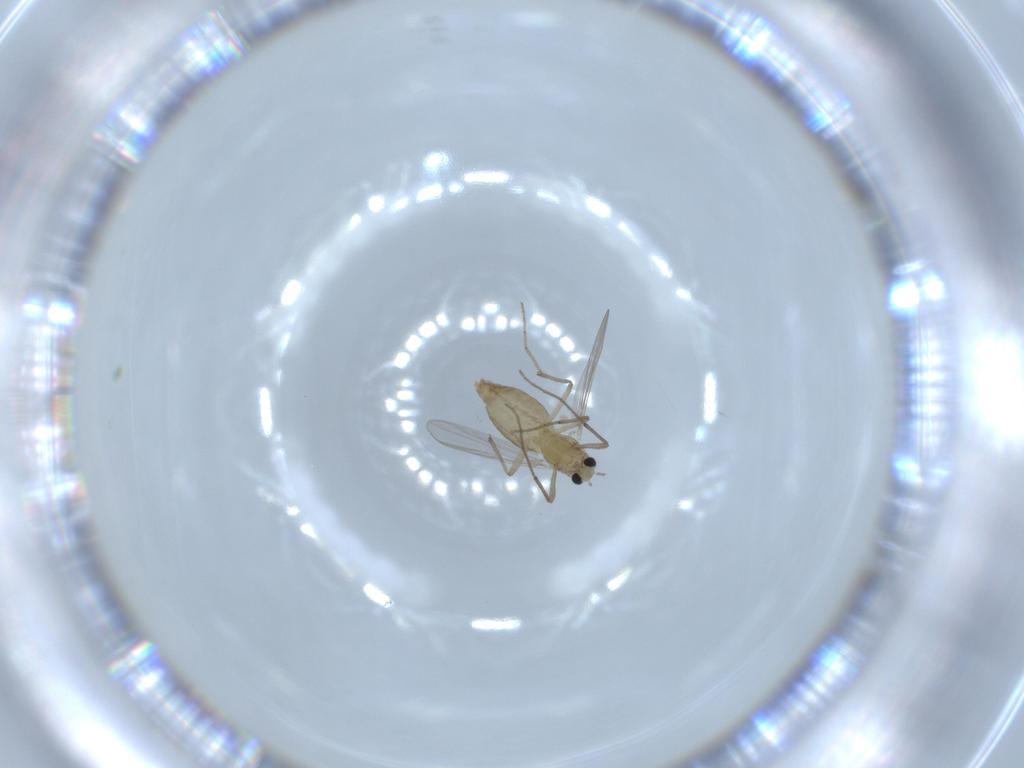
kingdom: Animalia
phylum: Arthropoda
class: Insecta
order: Diptera
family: Chironomidae
